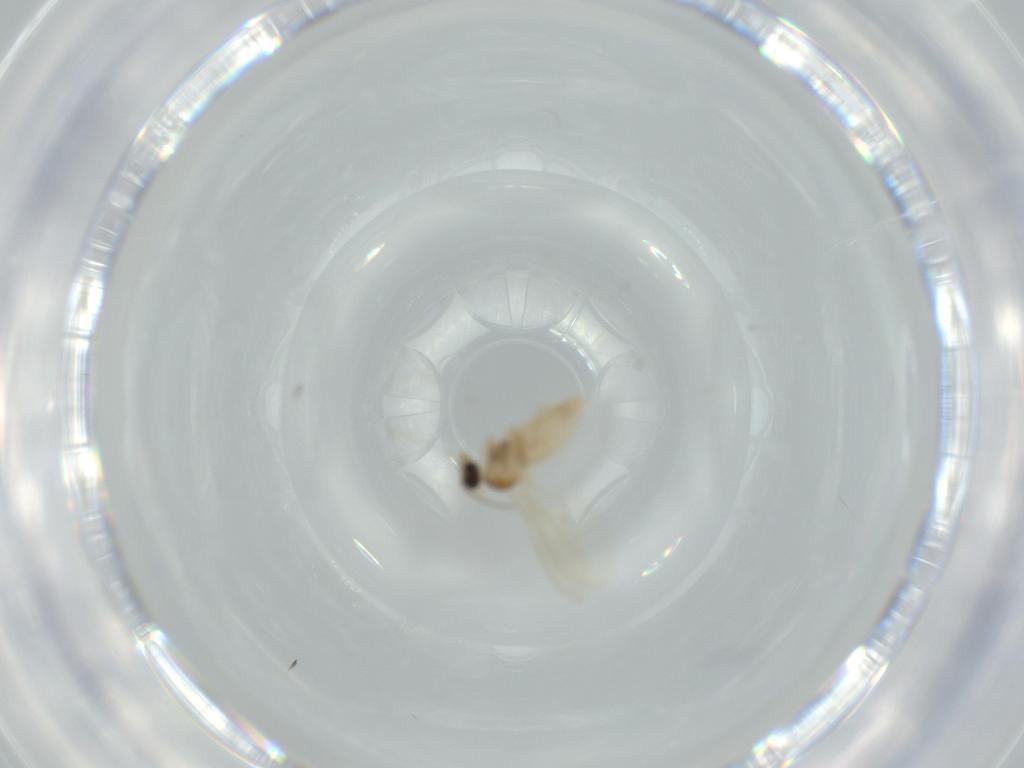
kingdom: Animalia
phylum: Arthropoda
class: Insecta
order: Diptera
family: Cecidomyiidae
